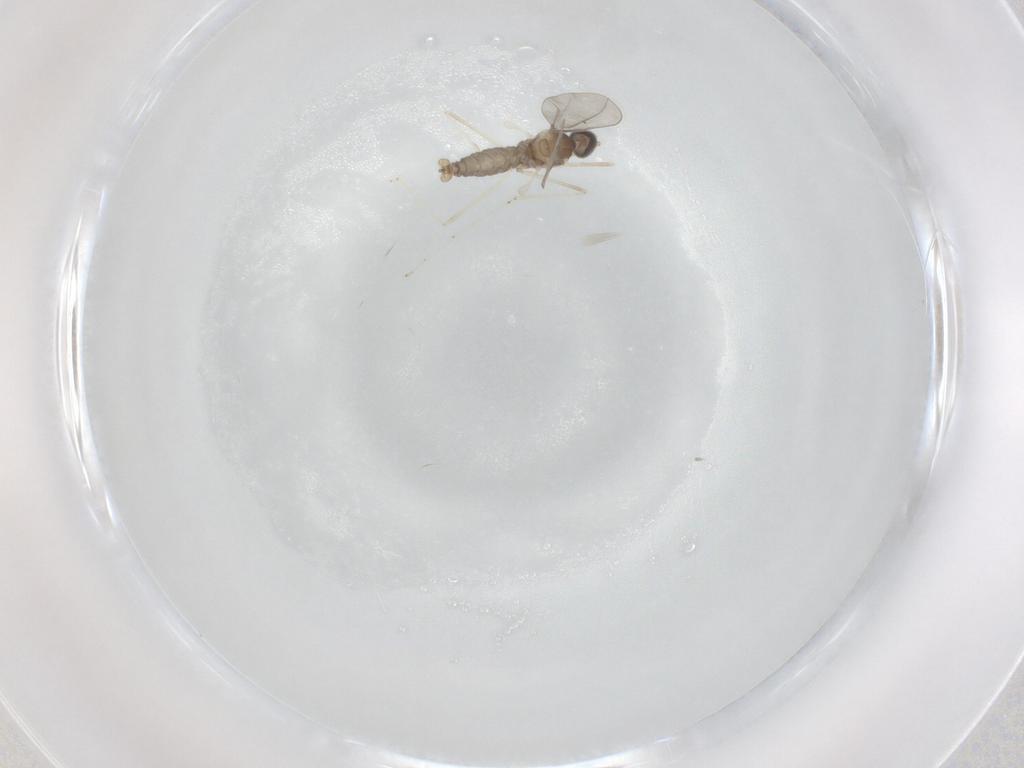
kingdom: Animalia
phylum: Arthropoda
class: Insecta
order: Diptera
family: Cecidomyiidae
